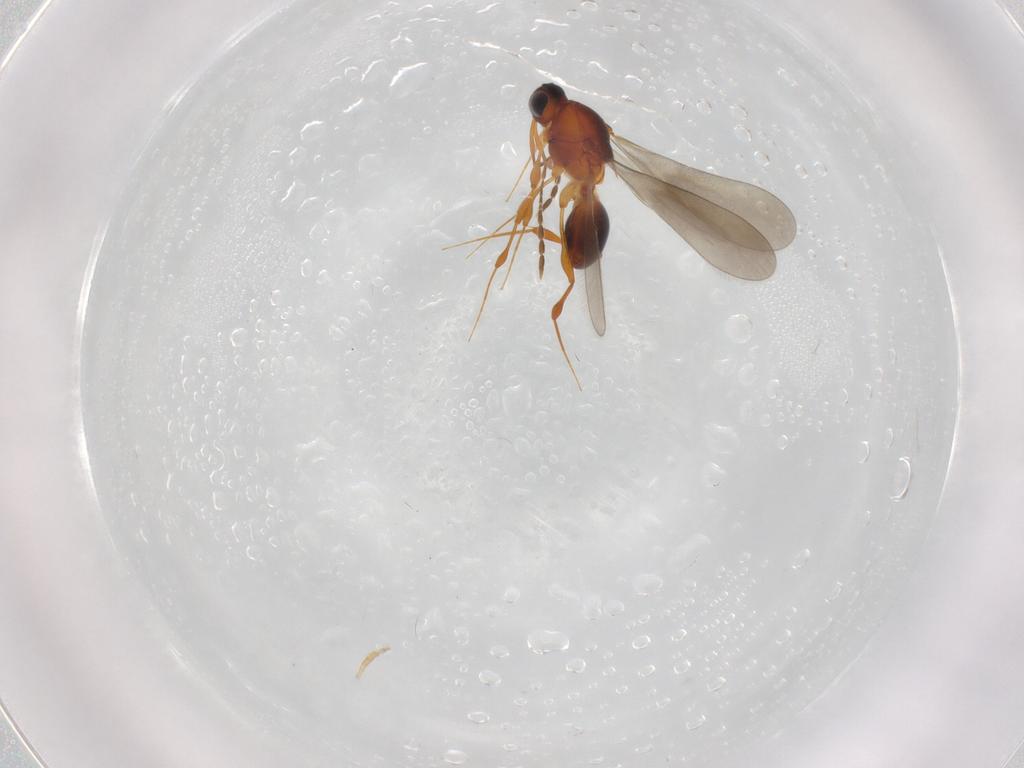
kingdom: Animalia
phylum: Arthropoda
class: Insecta
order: Hymenoptera
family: Platygastridae
